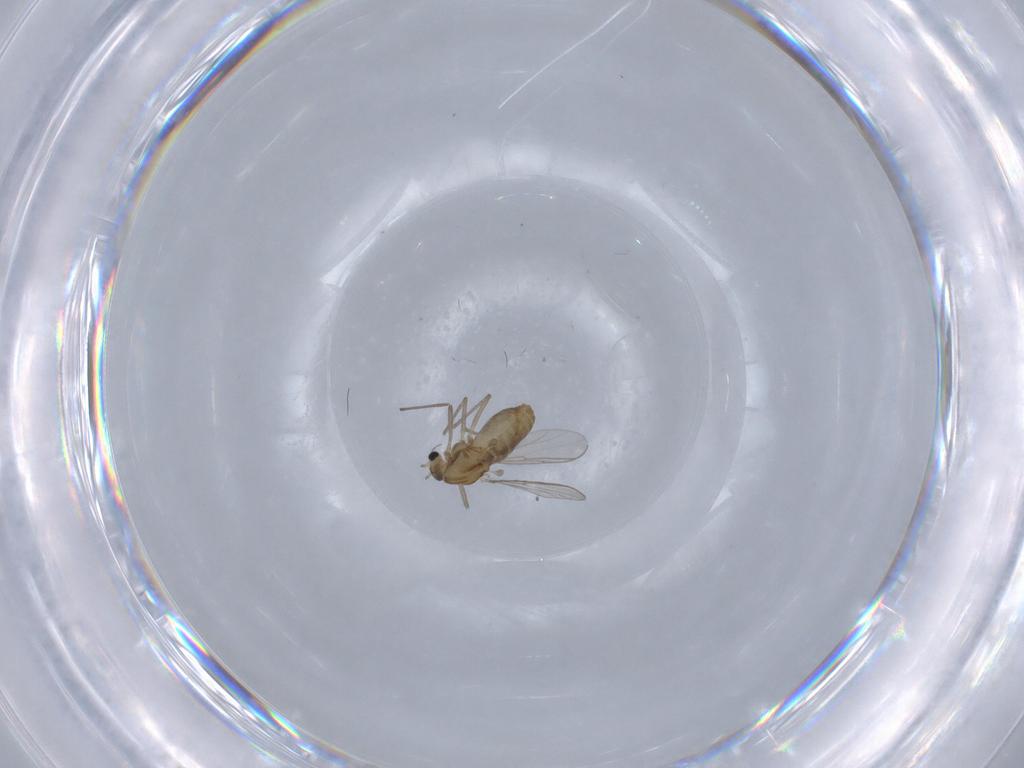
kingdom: Animalia
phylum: Arthropoda
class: Insecta
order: Diptera
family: Chironomidae
